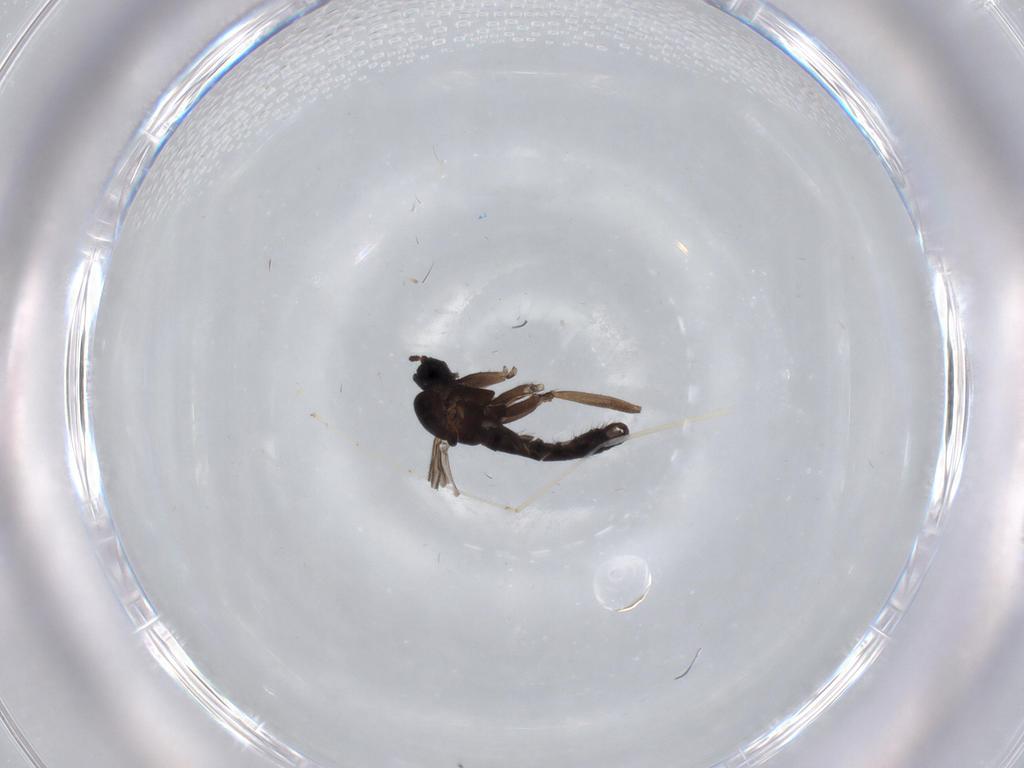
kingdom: Animalia
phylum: Arthropoda
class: Insecta
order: Diptera
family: Sciaridae
